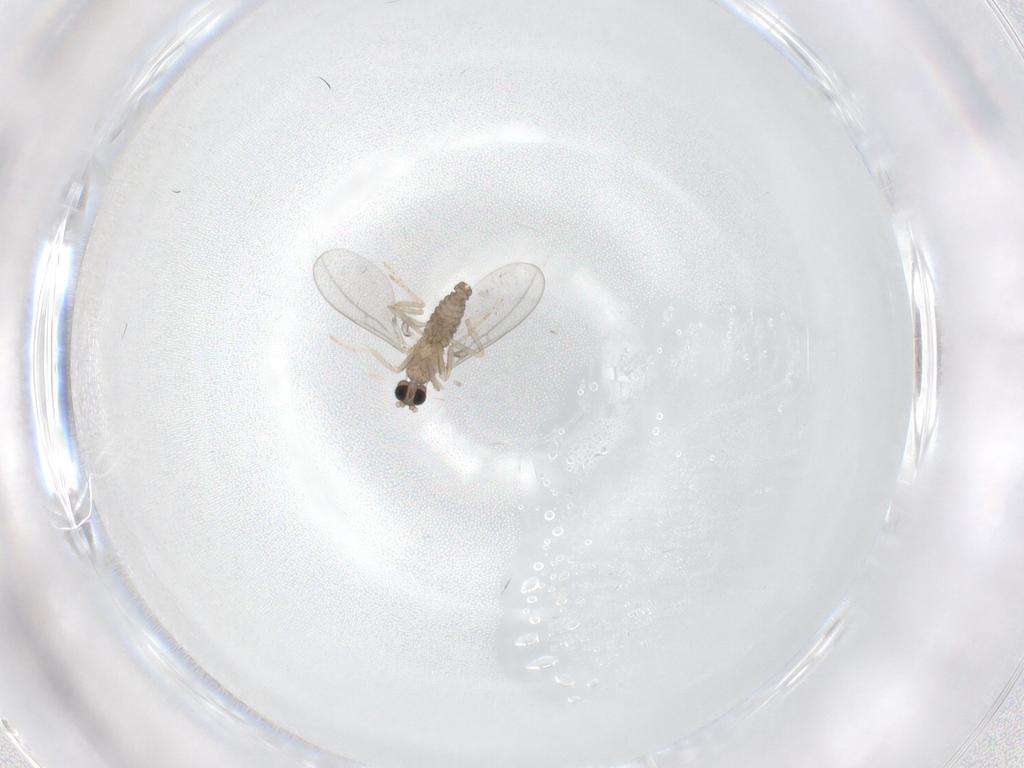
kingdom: Animalia
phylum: Arthropoda
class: Insecta
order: Diptera
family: Cecidomyiidae
